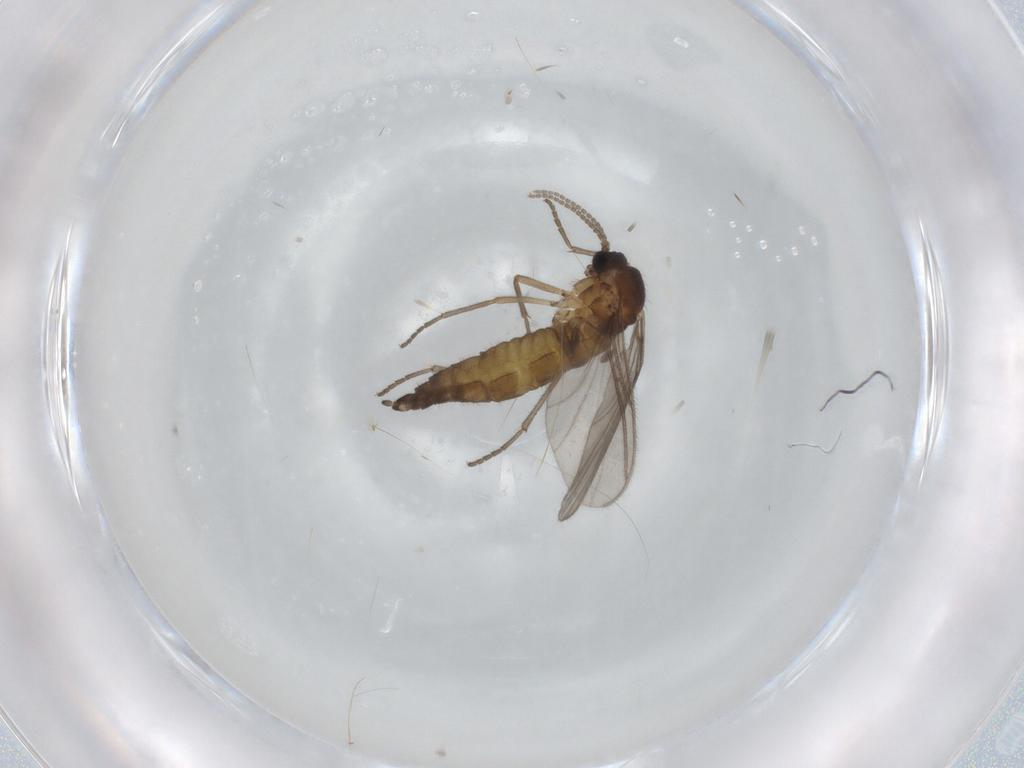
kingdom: Animalia
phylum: Arthropoda
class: Insecta
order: Diptera
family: Sciaridae
